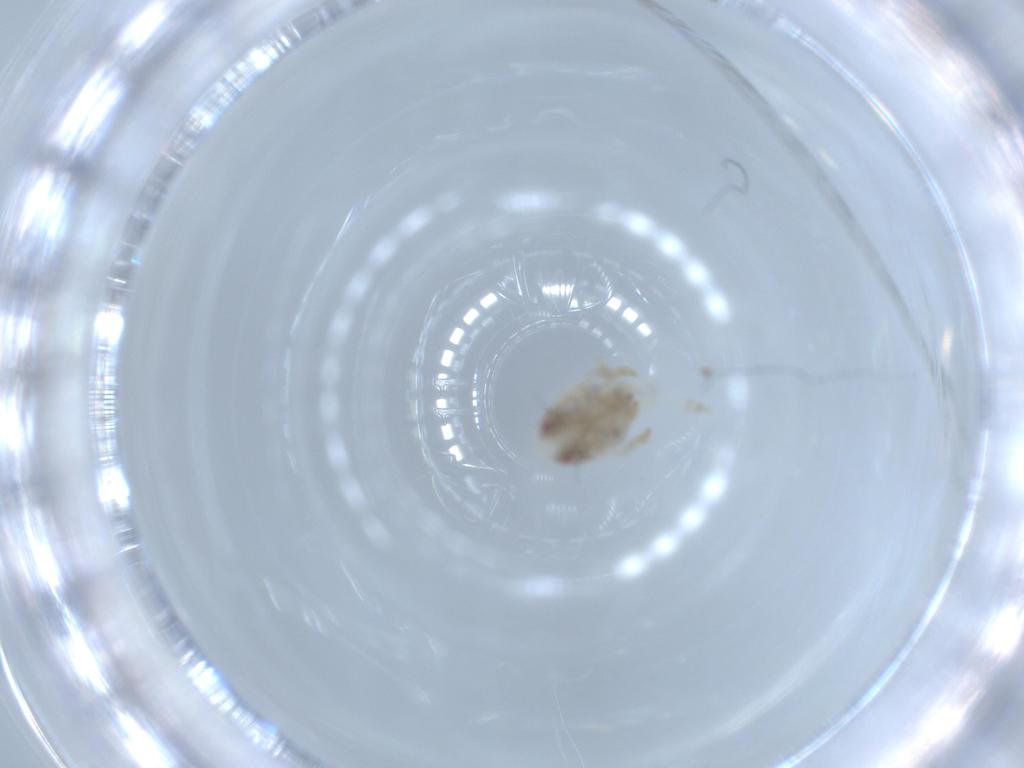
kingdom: Animalia
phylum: Arthropoda
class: Insecta
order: Hemiptera
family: Acanaloniidae
